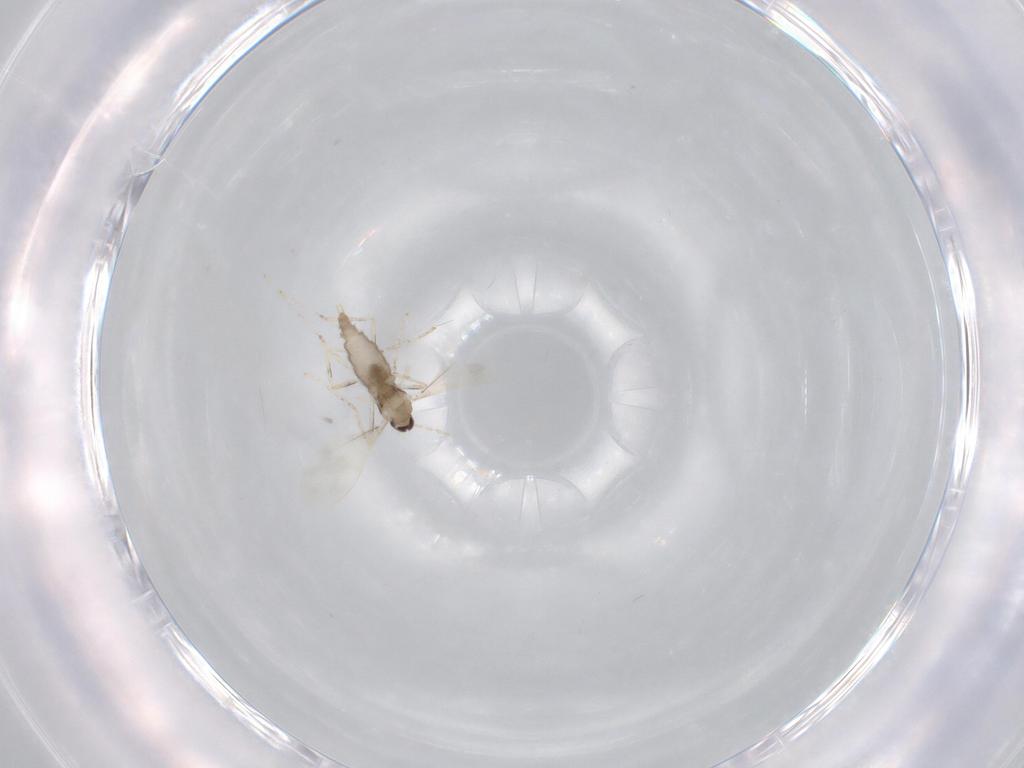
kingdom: Animalia
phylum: Arthropoda
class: Insecta
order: Diptera
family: Cecidomyiidae
